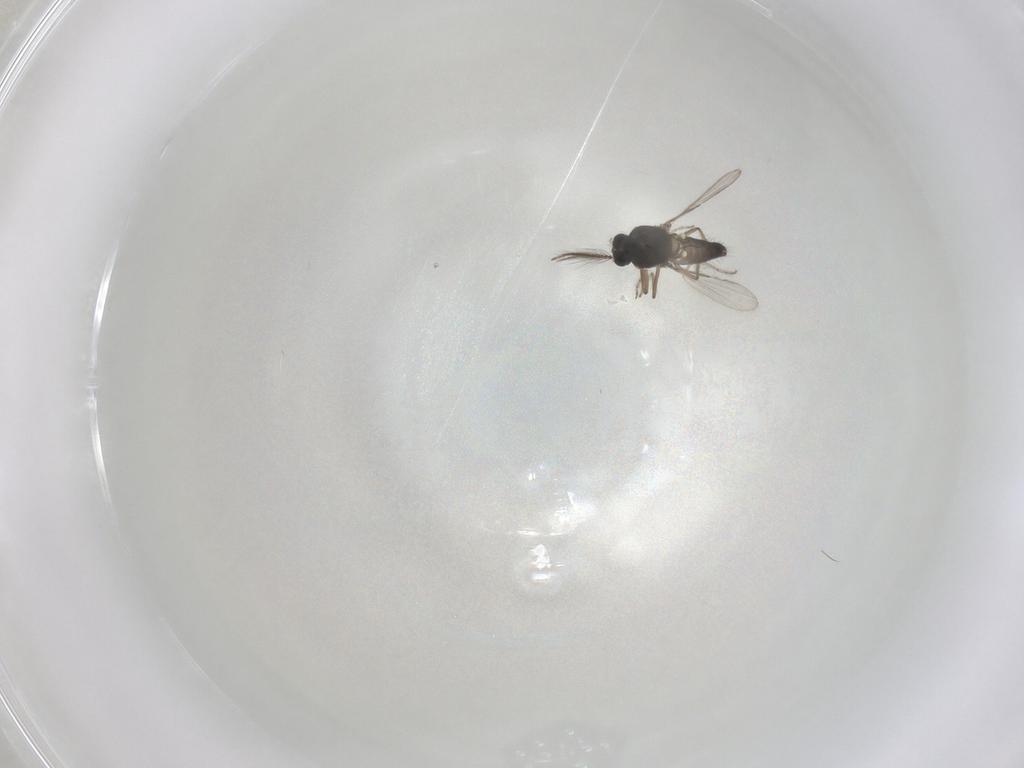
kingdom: Animalia
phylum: Arthropoda
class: Insecta
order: Diptera
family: Ceratopogonidae
